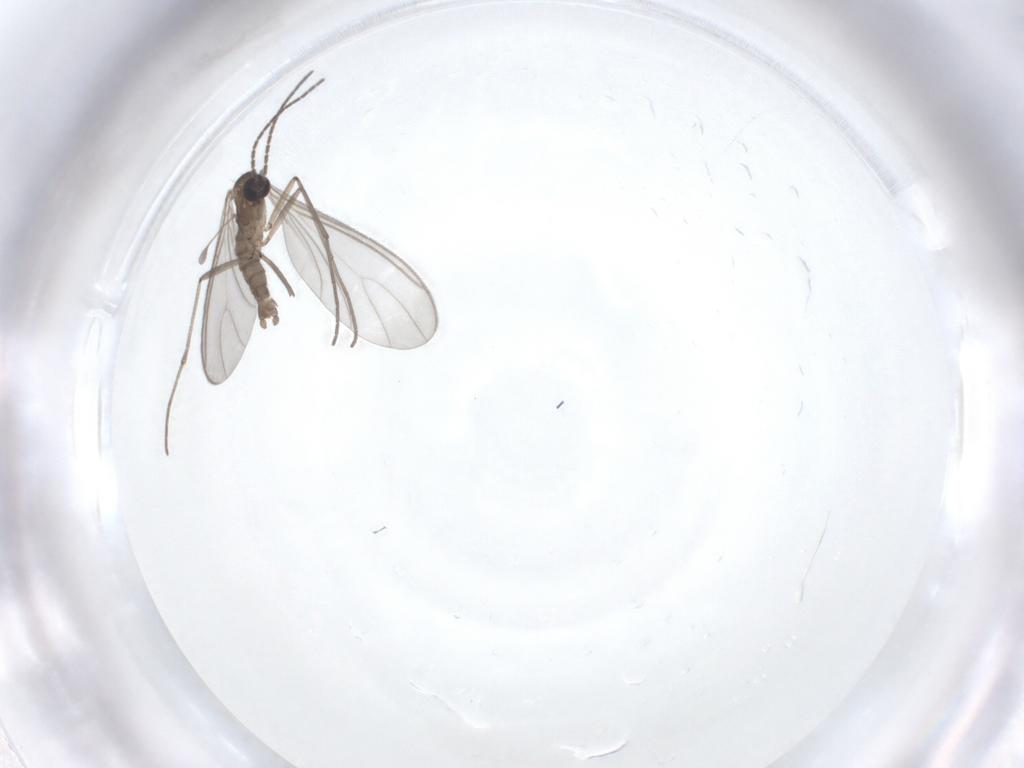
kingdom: Animalia
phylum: Arthropoda
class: Insecta
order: Diptera
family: Sciaridae
